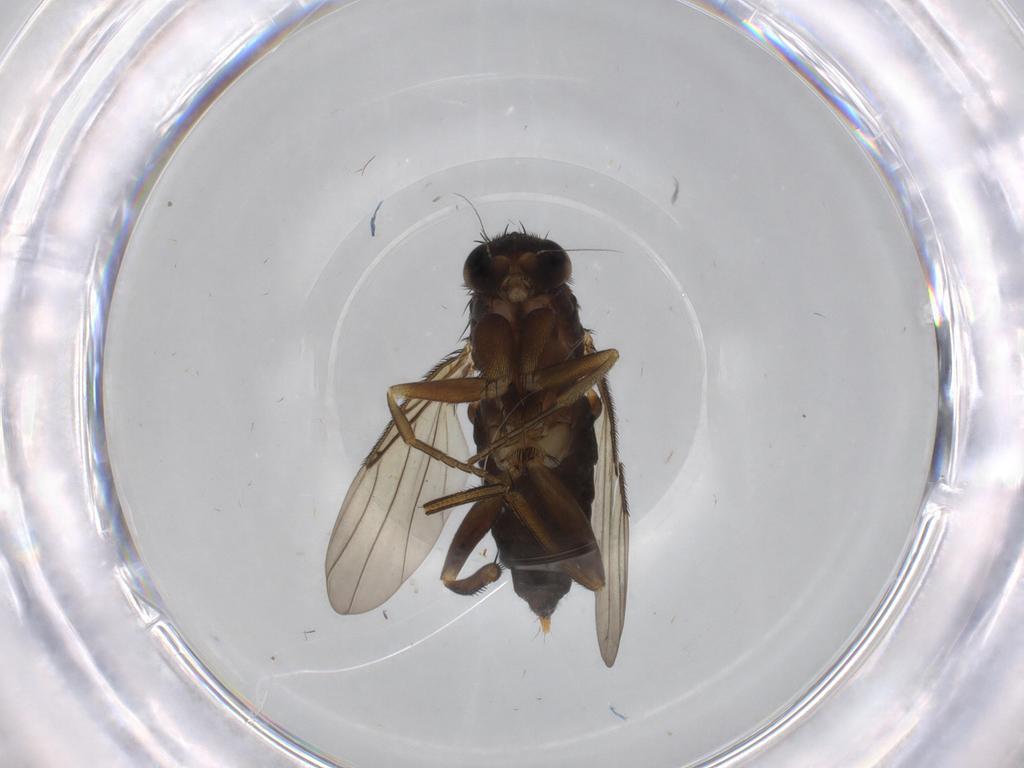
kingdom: Animalia
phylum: Arthropoda
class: Insecta
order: Diptera
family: Phoridae
